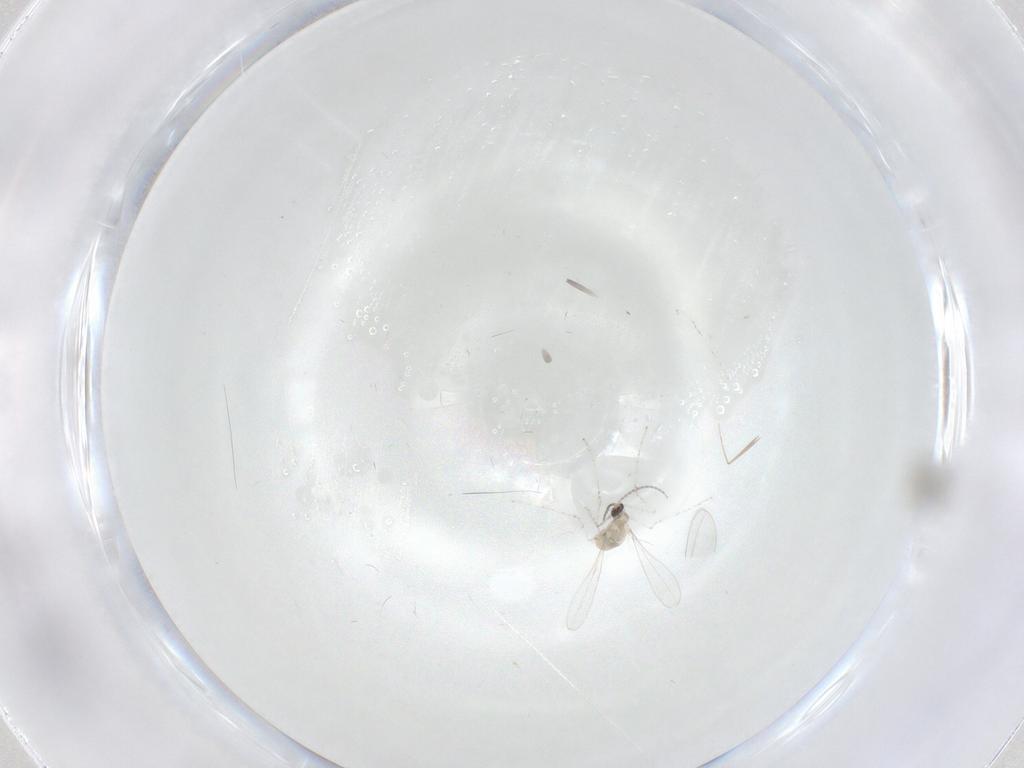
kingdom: Animalia
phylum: Arthropoda
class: Insecta
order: Diptera
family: Cecidomyiidae
